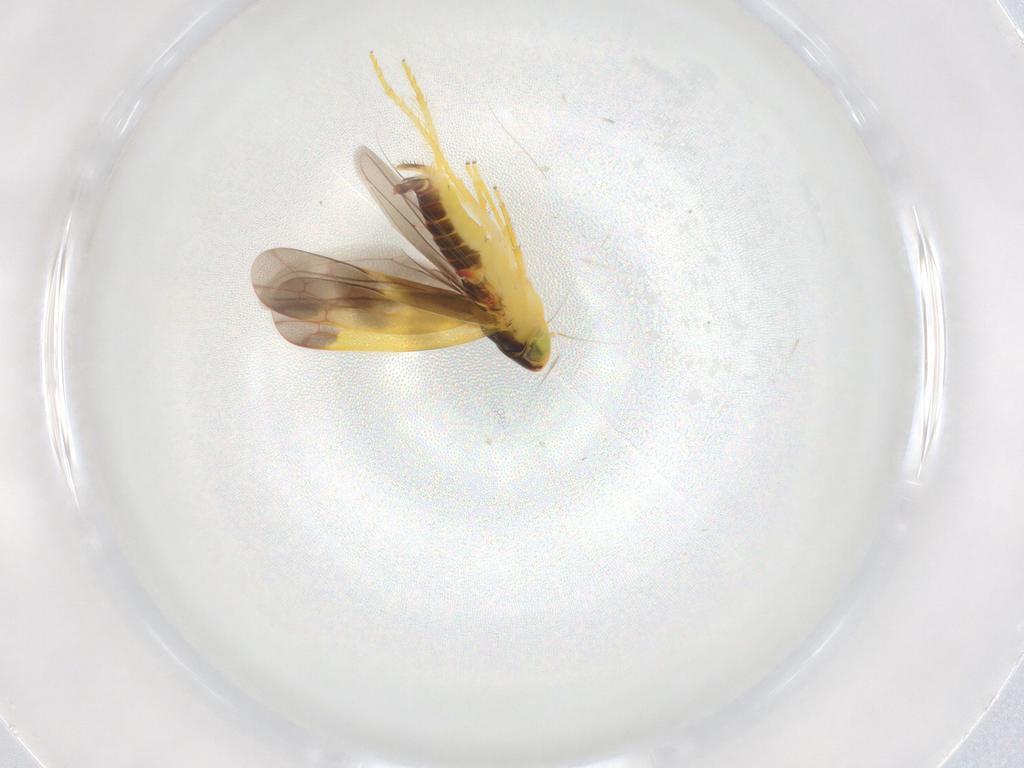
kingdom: Animalia
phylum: Arthropoda
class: Insecta
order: Hemiptera
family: Cicadellidae
